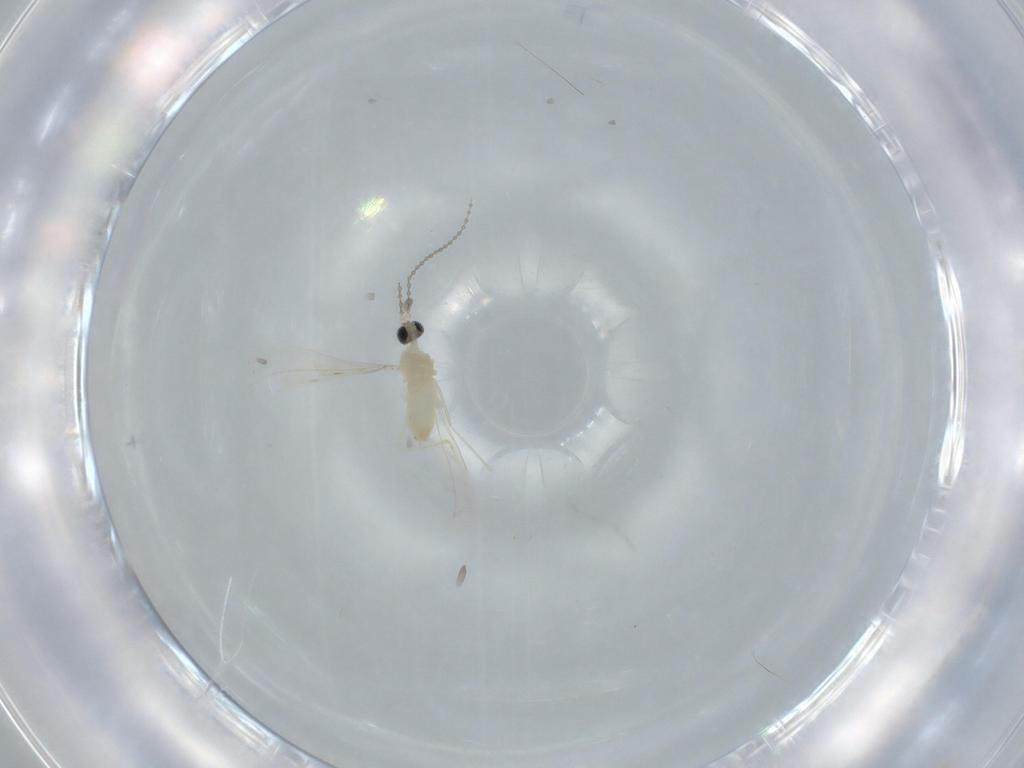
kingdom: Animalia
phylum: Arthropoda
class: Insecta
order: Diptera
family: Cecidomyiidae
